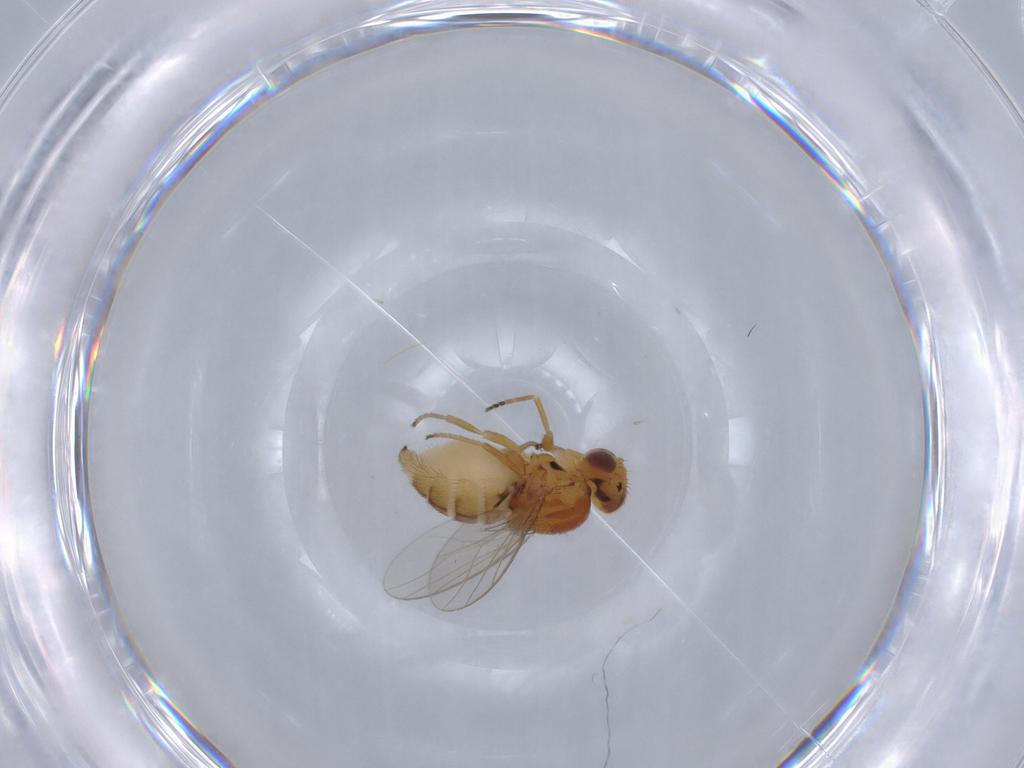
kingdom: Animalia
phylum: Arthropoda
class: Insecta
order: Diptera
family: Chloropidae
